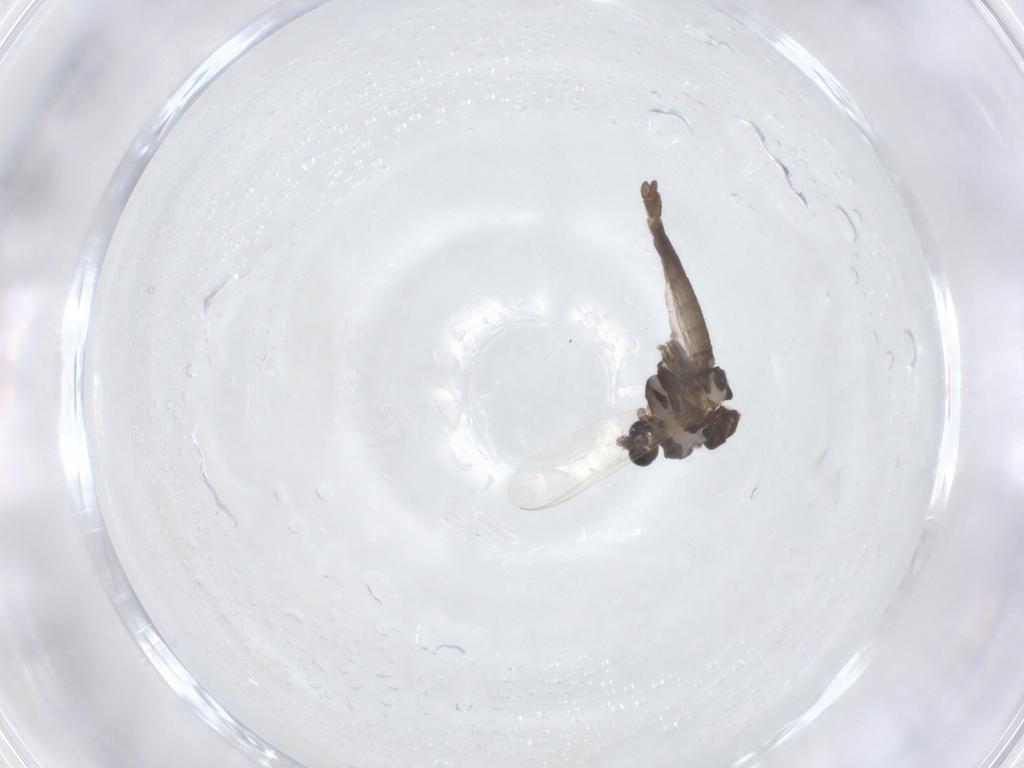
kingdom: Animalia
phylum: Arthropoda
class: Insecta
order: Diptera
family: Chironomidae
